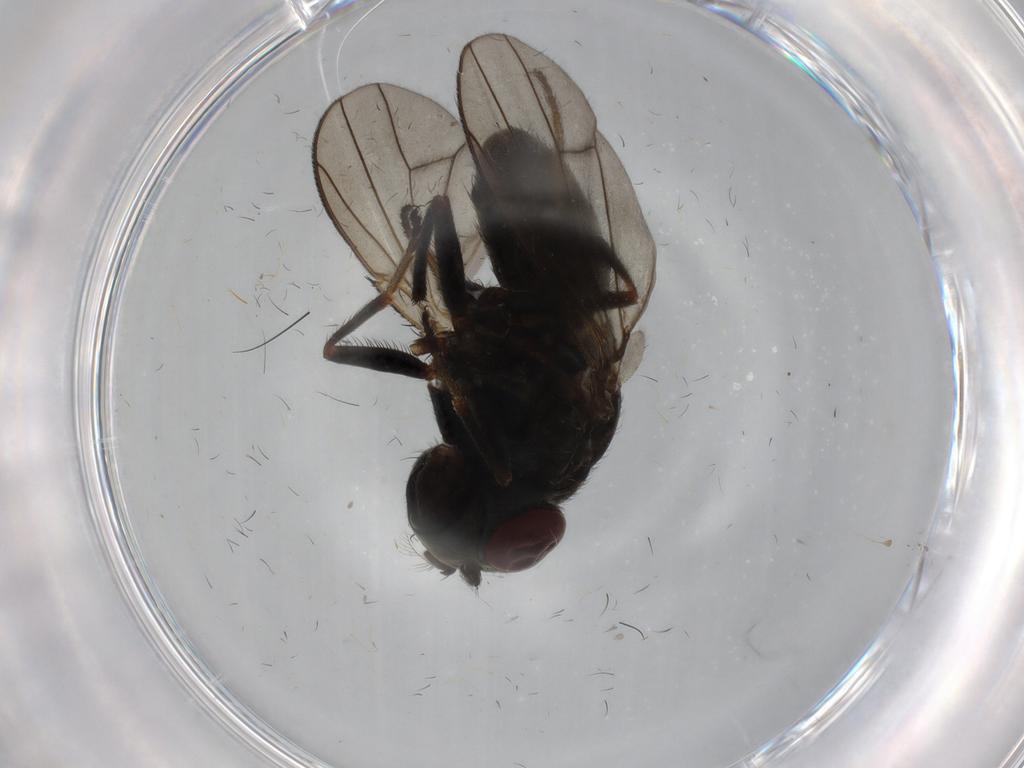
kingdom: Animalia
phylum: Arthropoda
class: Insecta
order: Diptera
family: Ephydridae
